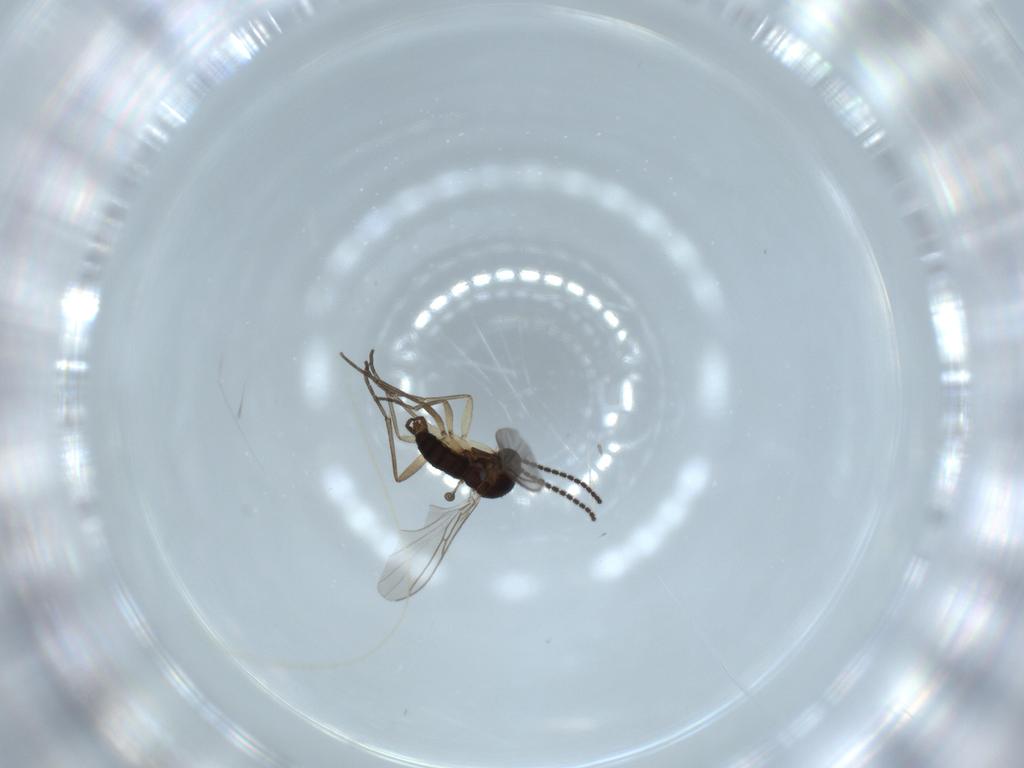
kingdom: Animalia
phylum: Arthropoda
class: Insecta
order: Diptera
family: Sciaridae
